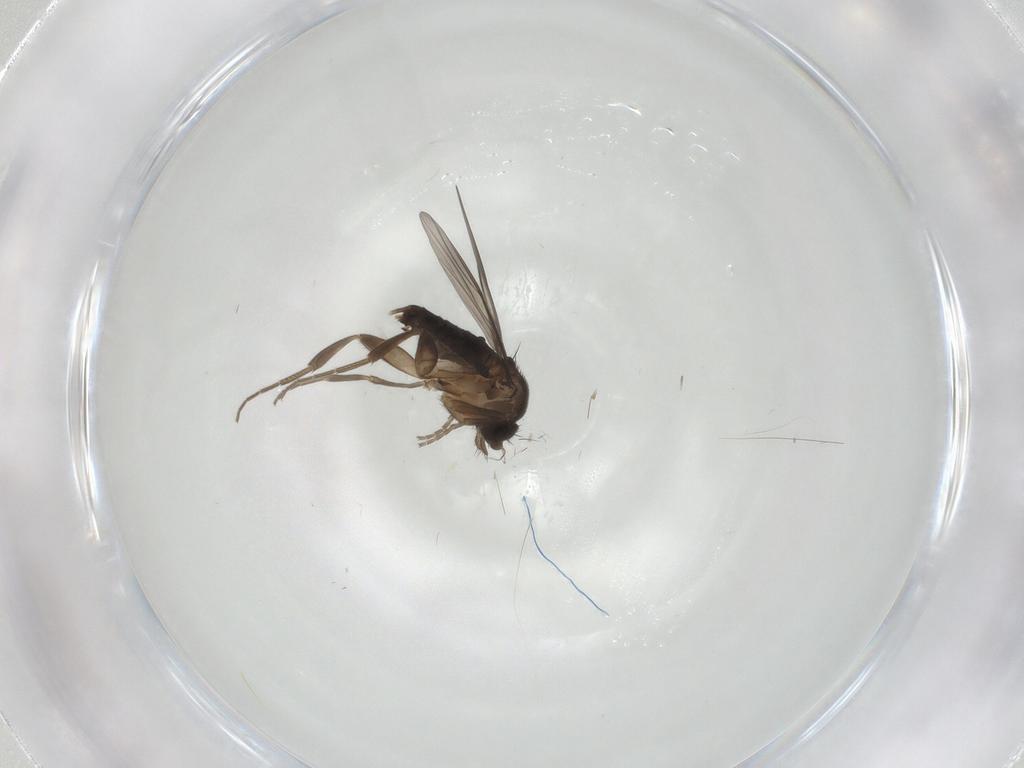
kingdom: Animalia
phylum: Arthropoda
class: Insecta
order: Diptera
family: Phoridae
